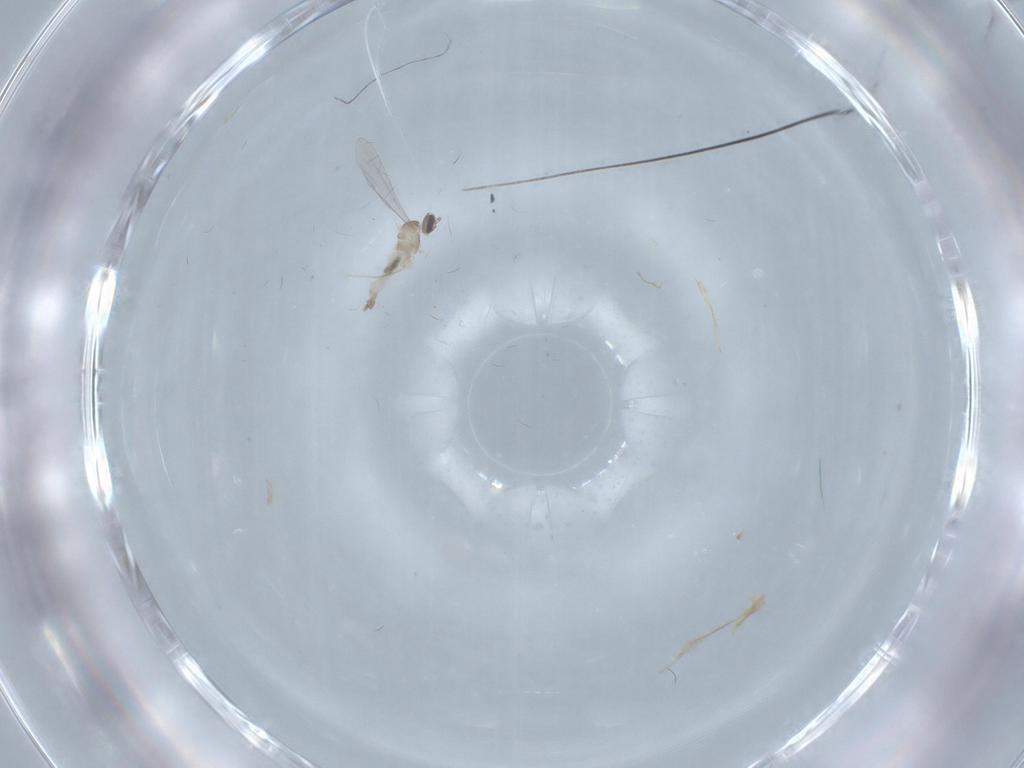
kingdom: Animalia
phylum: Arthropoda
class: Insecta
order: Diptera
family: Cecidomyiidae
